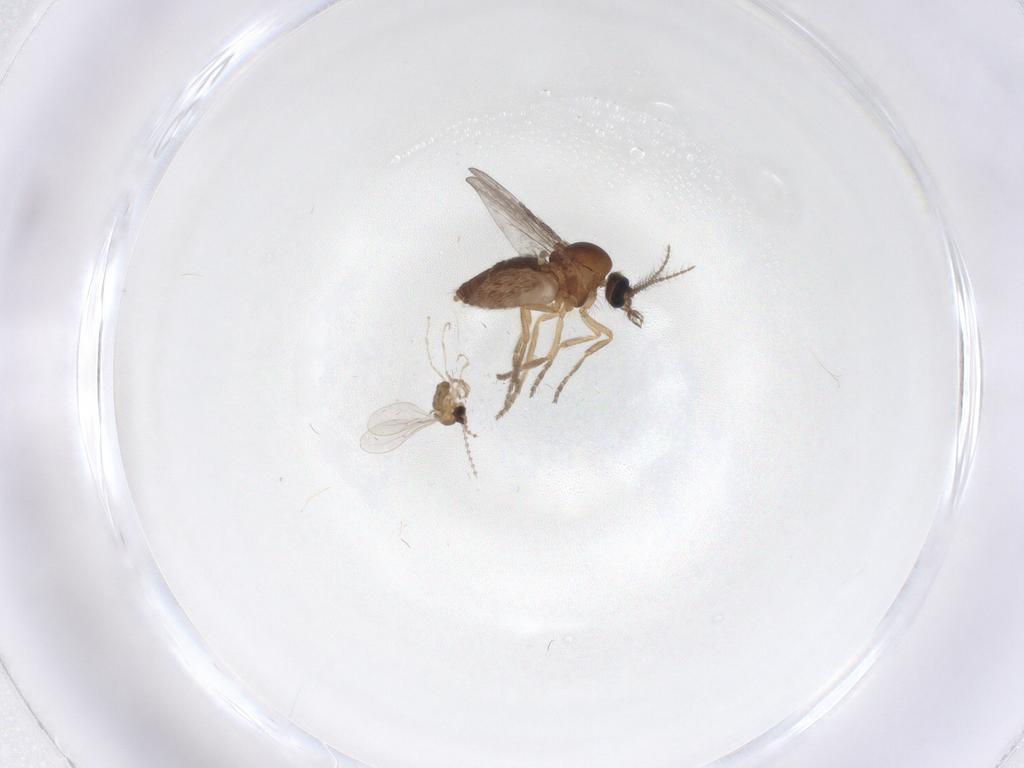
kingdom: Animalia
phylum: Arthropoda
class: Insecta
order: Diptera
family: Ceratopogonidae
